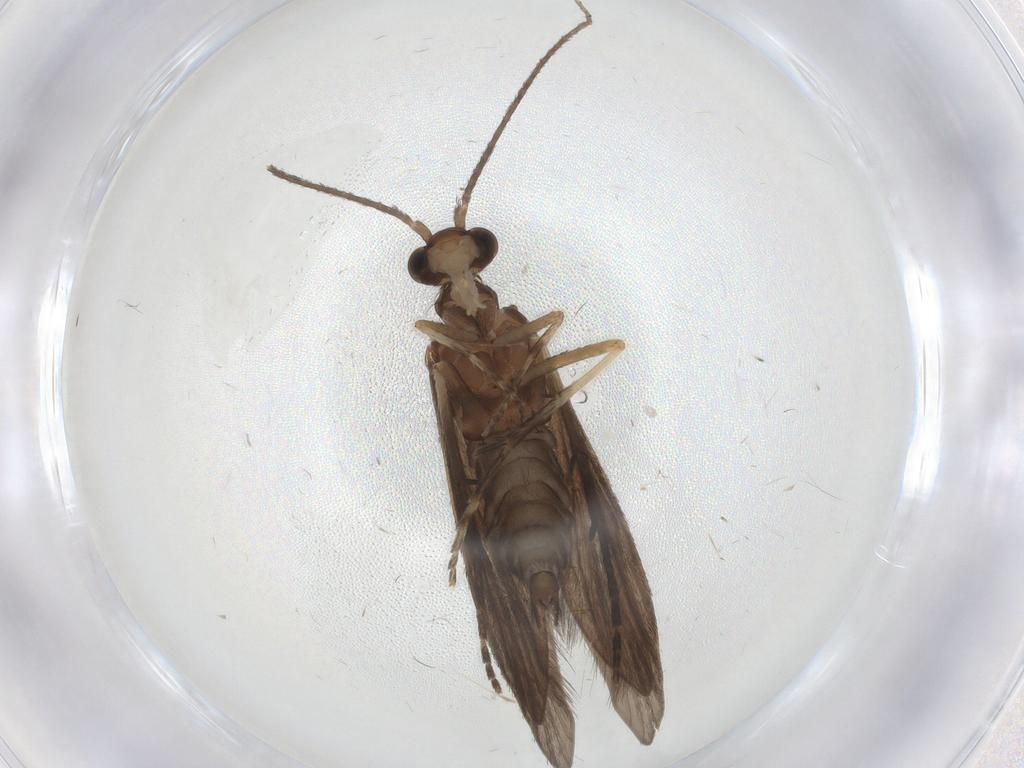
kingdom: Animalia
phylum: Arthropoda
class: Insecta
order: Trichoptera
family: Xiphocentronidae
